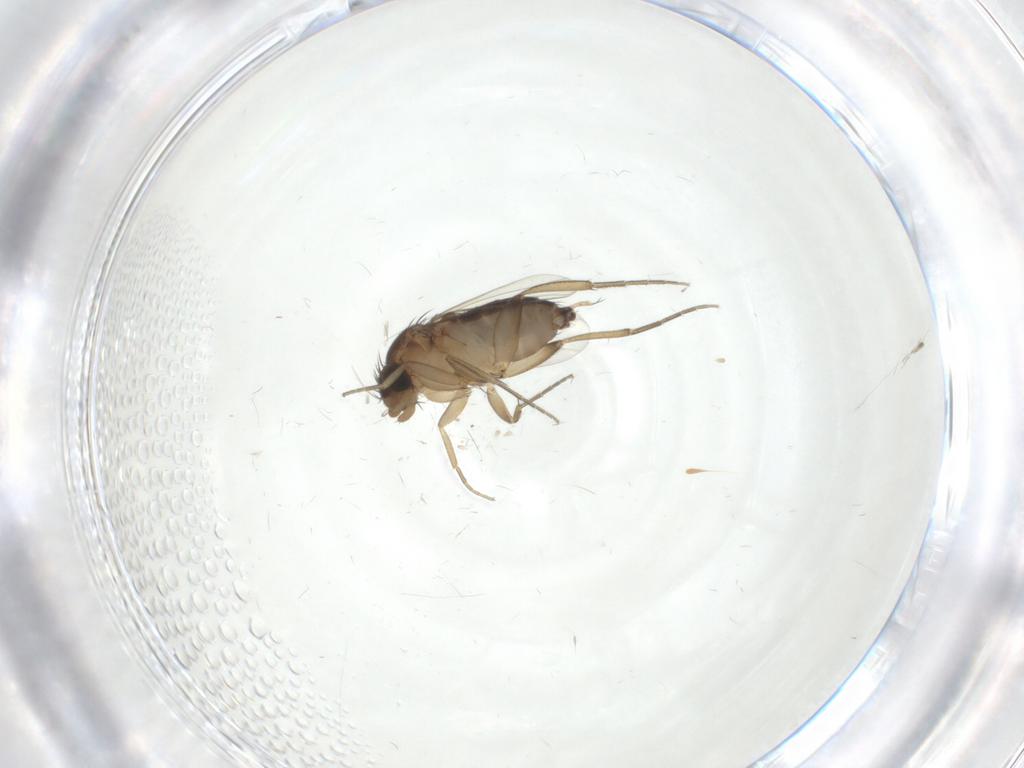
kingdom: Animalia
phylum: Arthropoda
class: Insecta
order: Diptera
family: Phoridae
